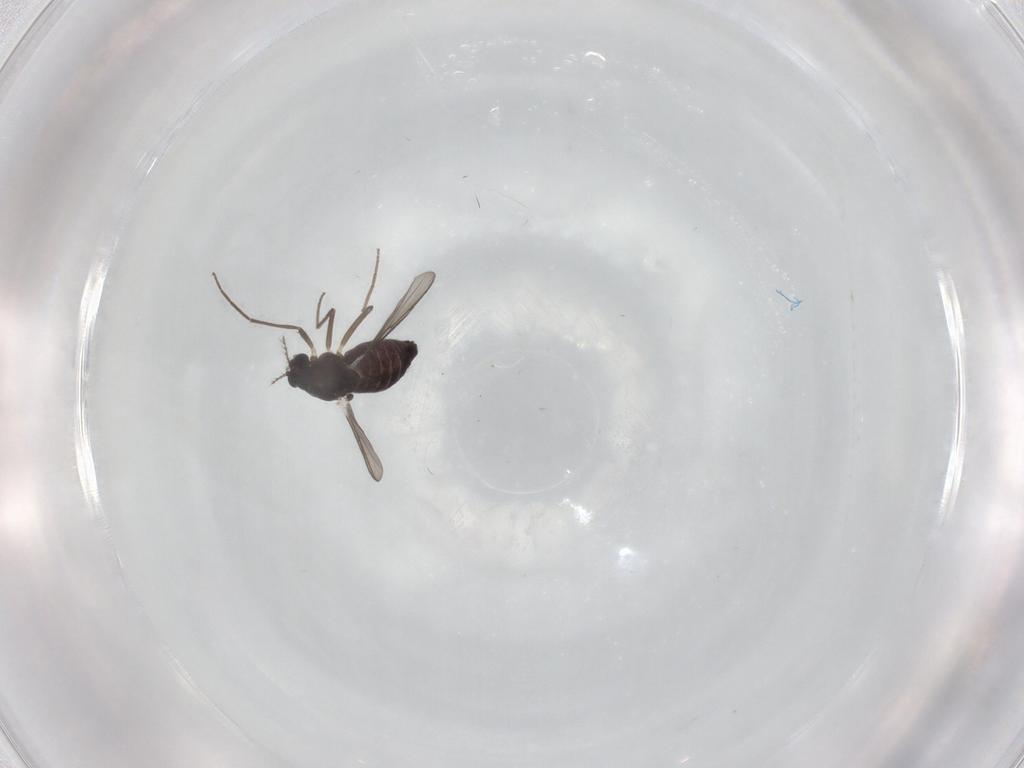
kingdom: Animalia
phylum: Arthropoda
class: Insecta
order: Diptera
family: Chironomidae
